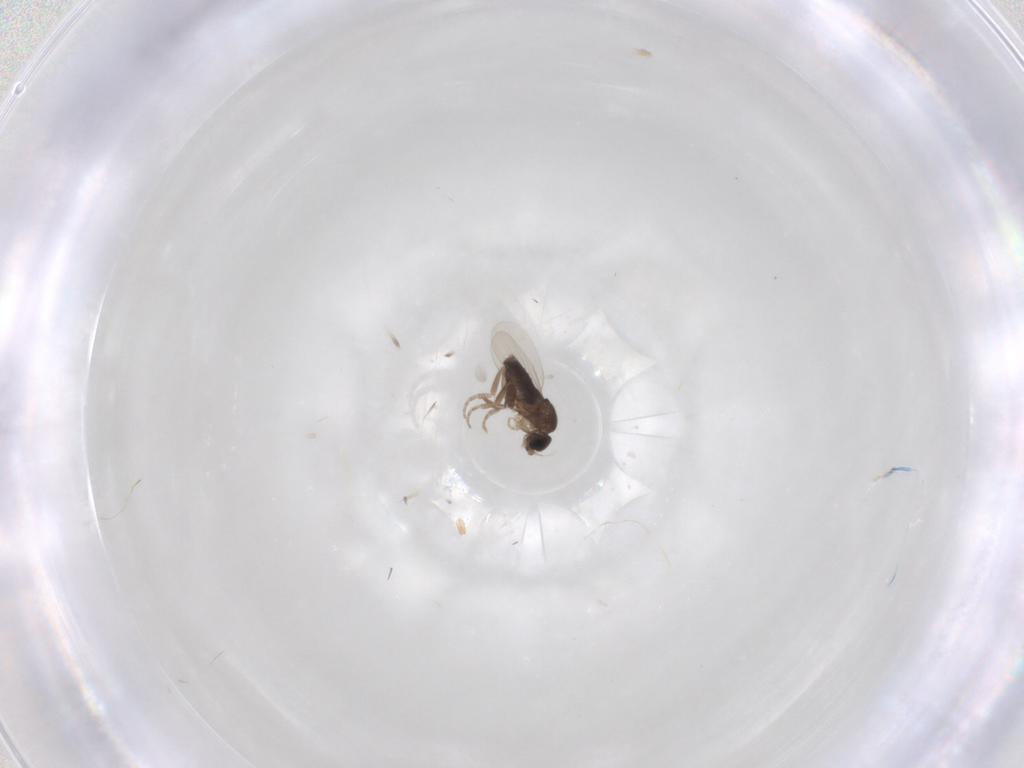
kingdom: Animalia
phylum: Arthropoda
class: Insecta
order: Diptera
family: Phoridae
